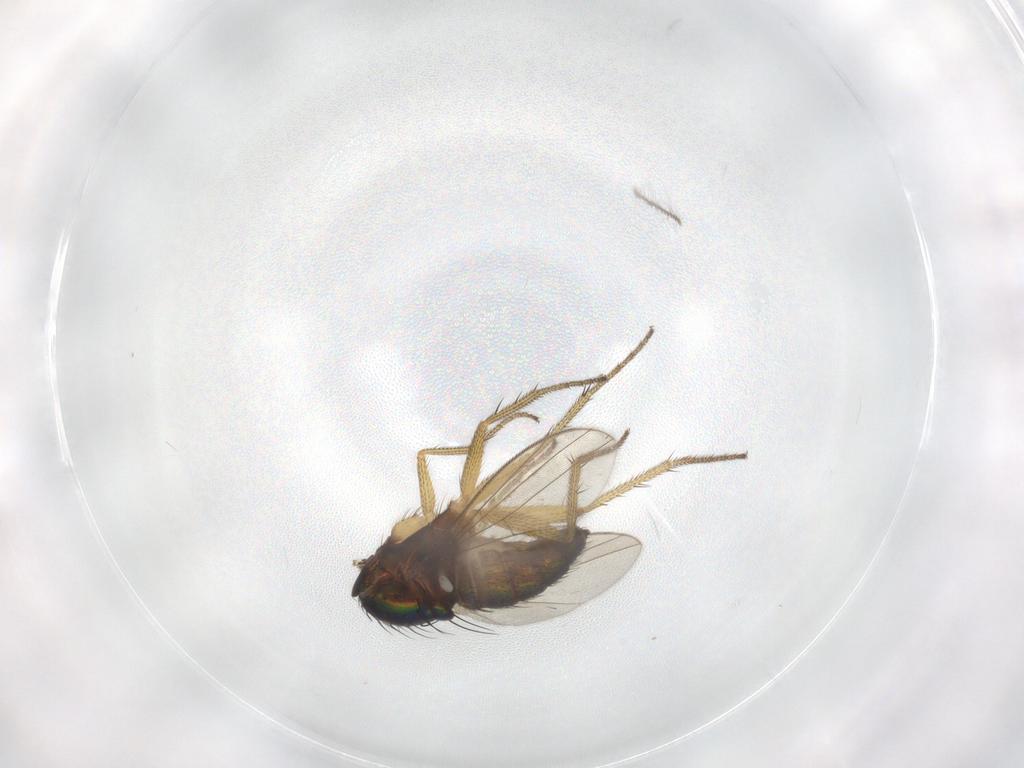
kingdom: Animalia
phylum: Arthropoda
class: Insecta
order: Diptera
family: Dolichopodidae
